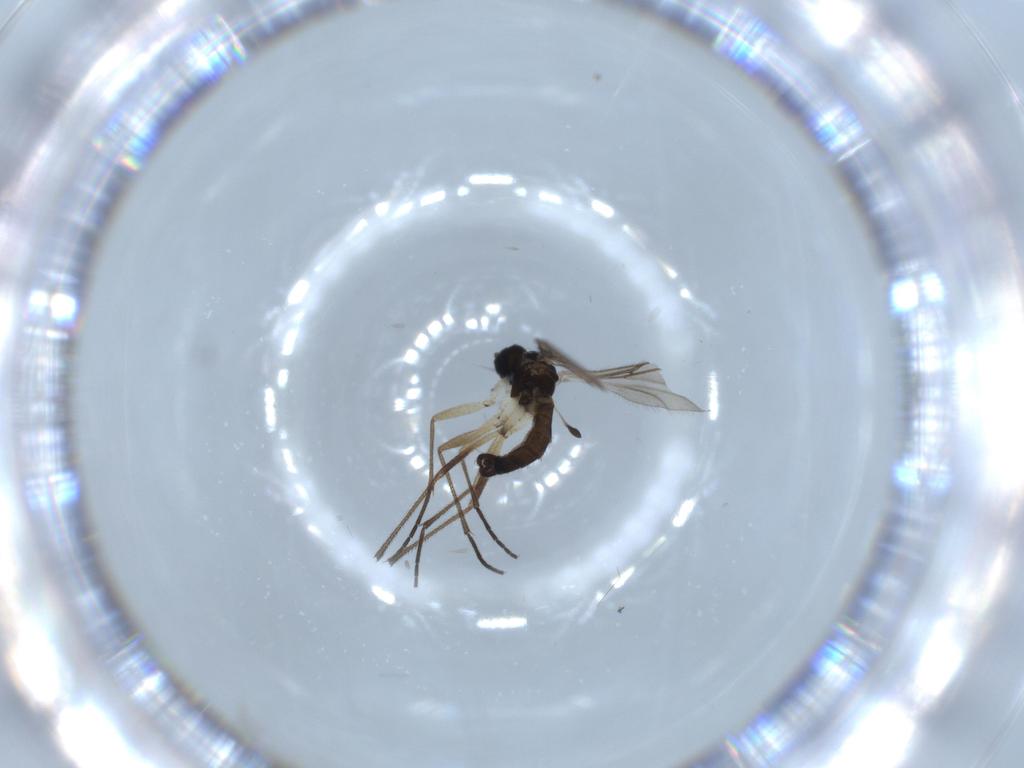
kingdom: Animalia
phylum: Arthropoda
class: Insecta
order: Diptera
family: Sciaridae
